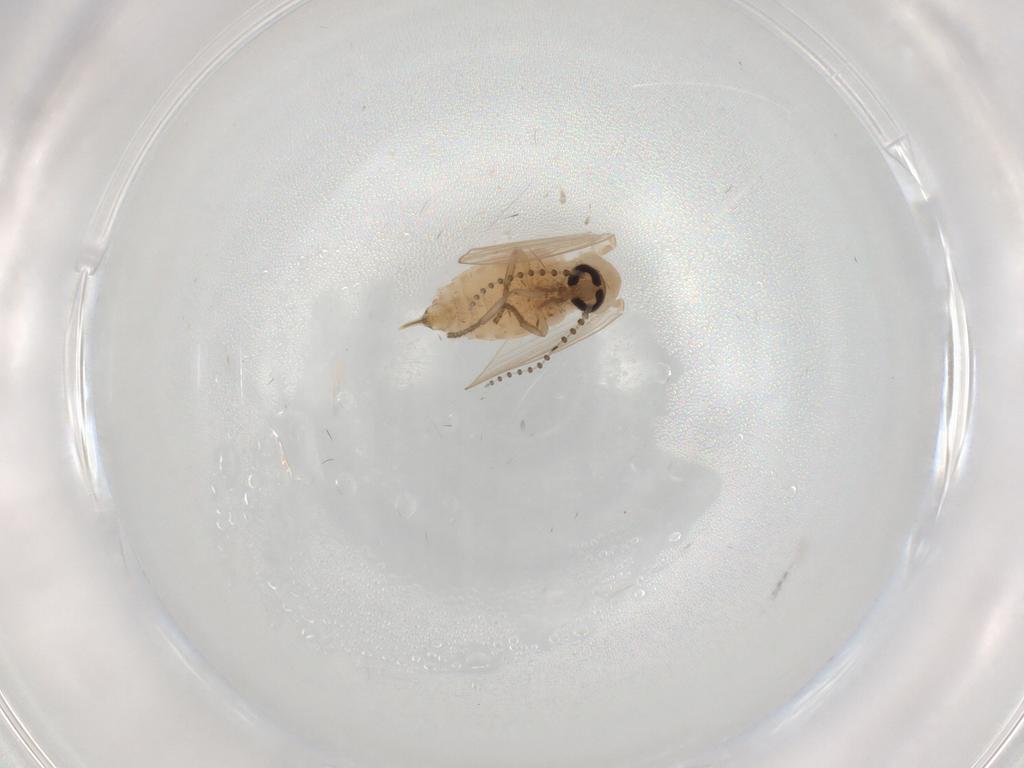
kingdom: Animalia
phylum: Arthropoda
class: Insecta
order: Diptera
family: Psychodidae
